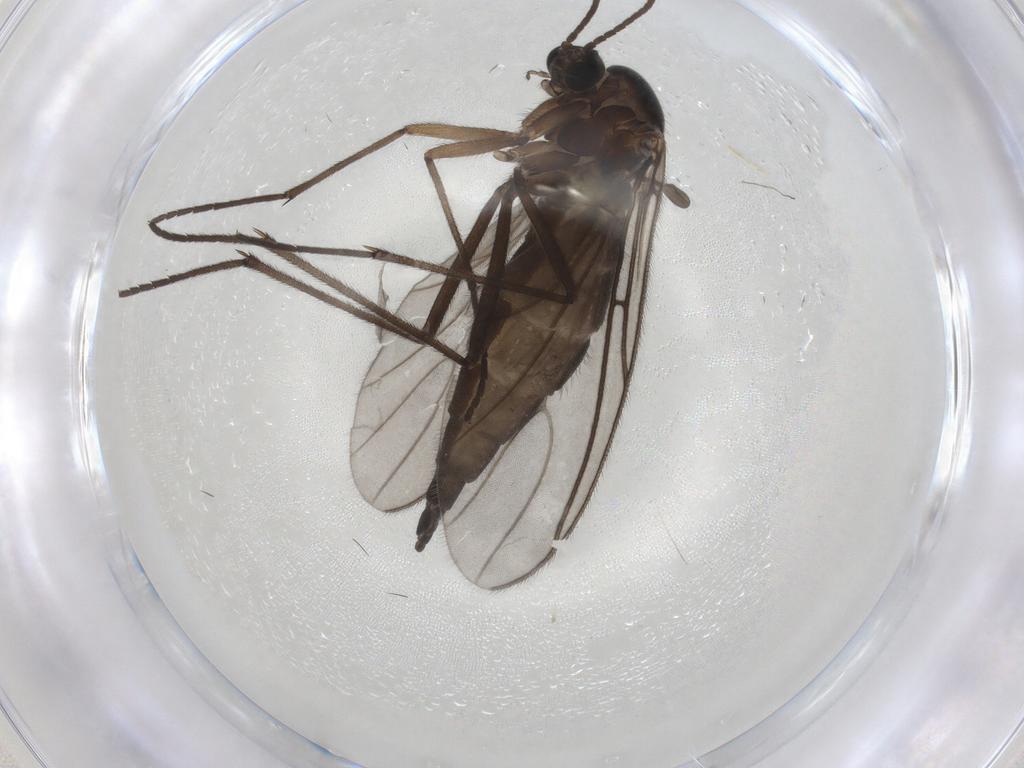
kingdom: Animalia
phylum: Arthropoda
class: Insecta
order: Diptera
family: Sciaridae
